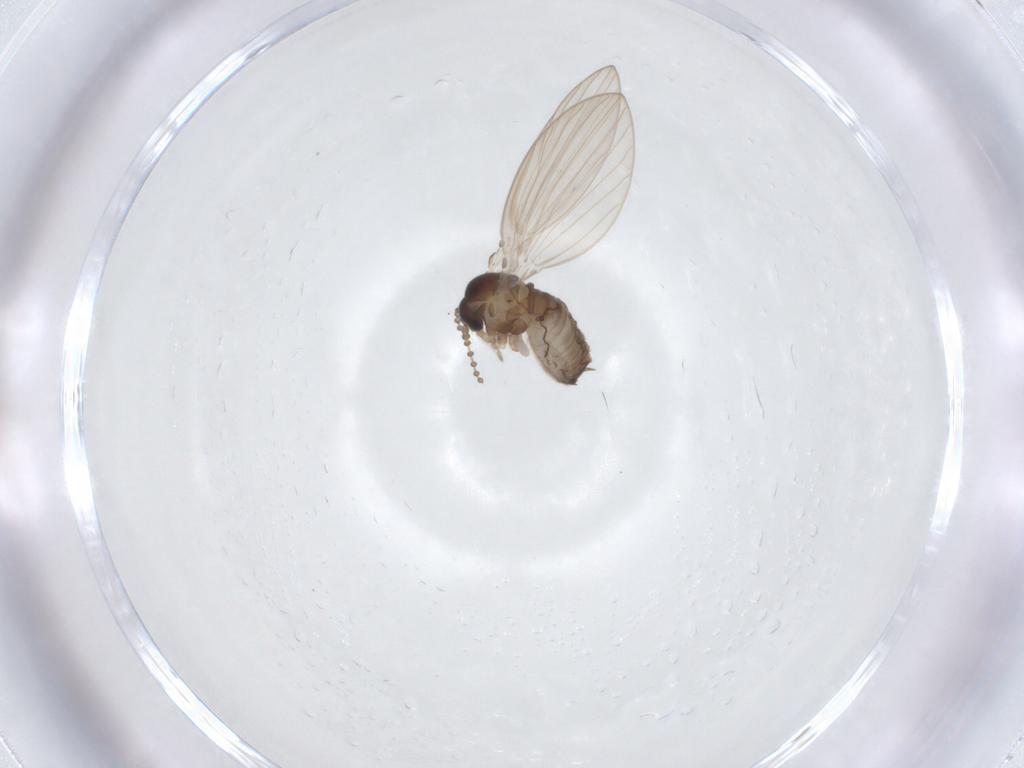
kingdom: Animalia
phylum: Arthropoda
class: Insecta
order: Diptera
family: Psychodidae
